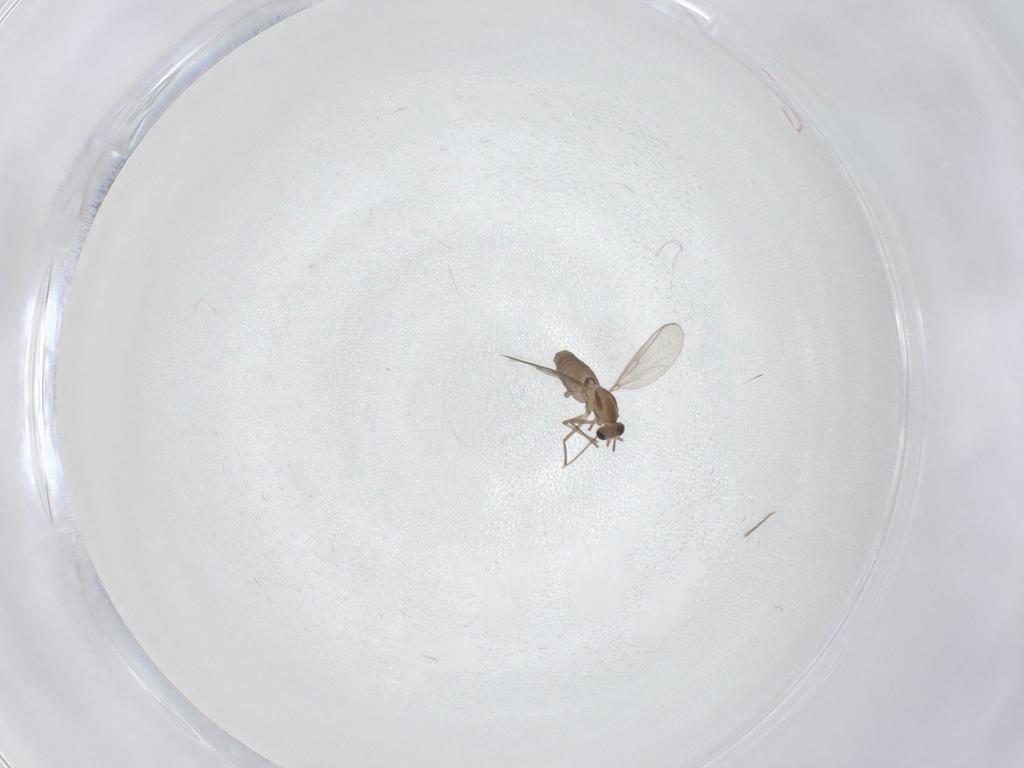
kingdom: Animalia
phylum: Arthropoda
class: Insecta
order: Diptera
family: Chironomidae
